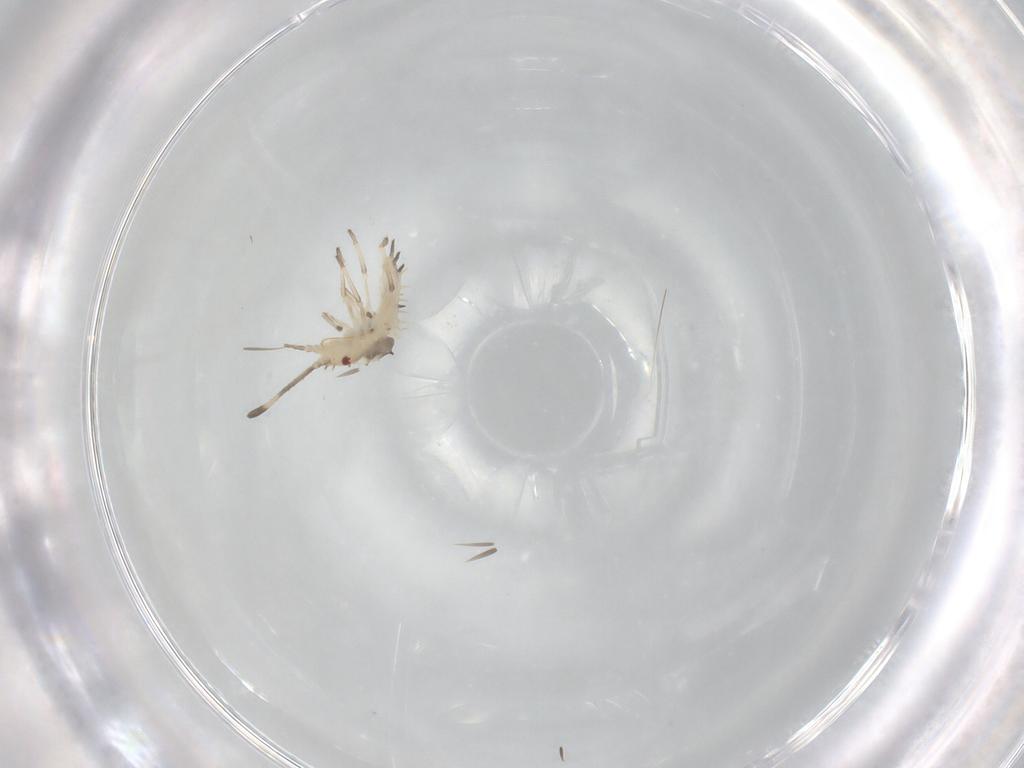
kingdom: Animalia
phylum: Arthropoda
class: Insecta
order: Hemiptera
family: Tingidae
